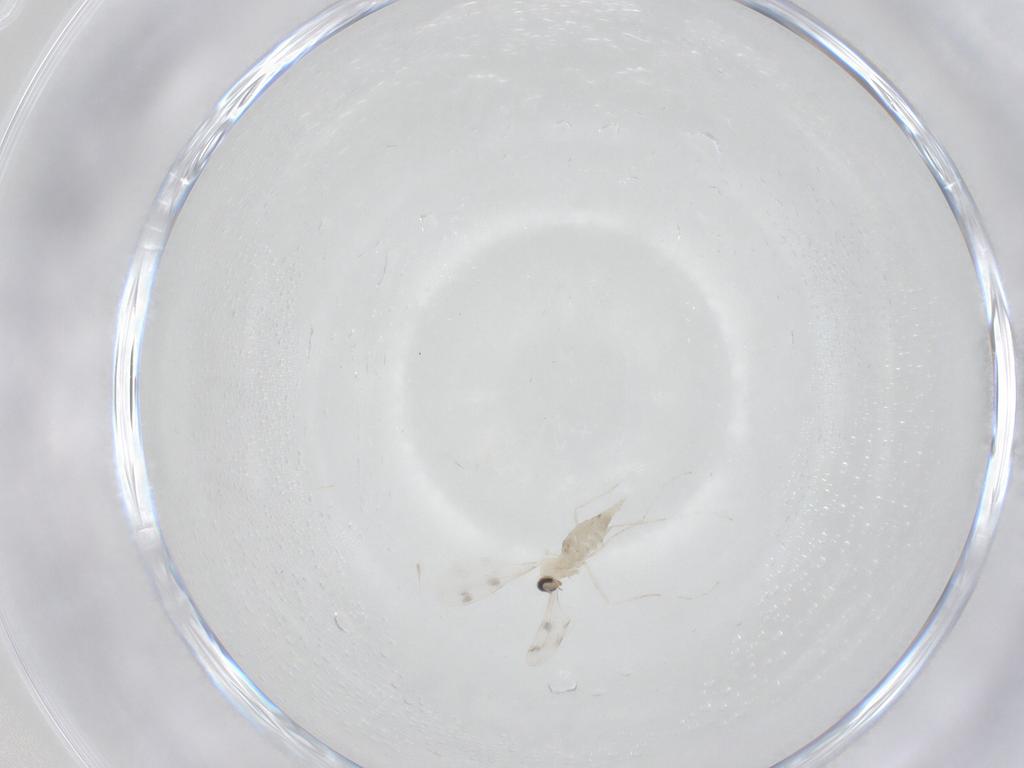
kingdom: Animalia
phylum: Arthropoda
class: Insecta
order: Diptera
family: Cecidomyiidae
